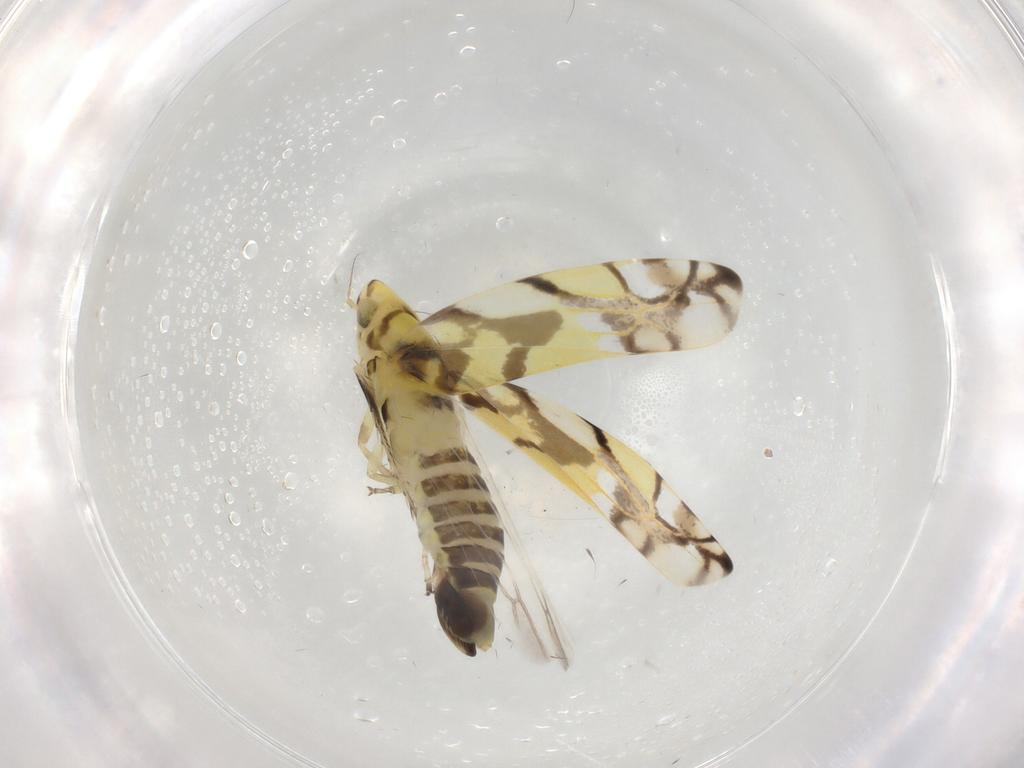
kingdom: Animalia
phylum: Arthropoda
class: Insecta
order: Hemiptera
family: Cicadellidae
